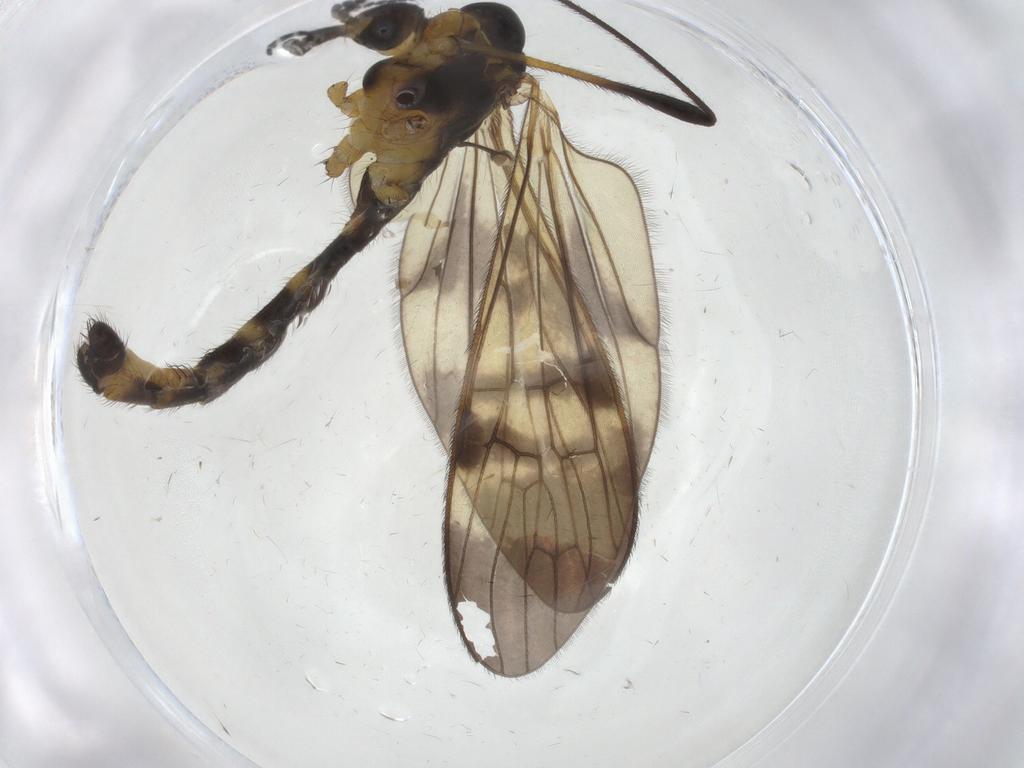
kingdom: Animalia
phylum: Arthropoda
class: Insecta
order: Diptera
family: Limoniidae
